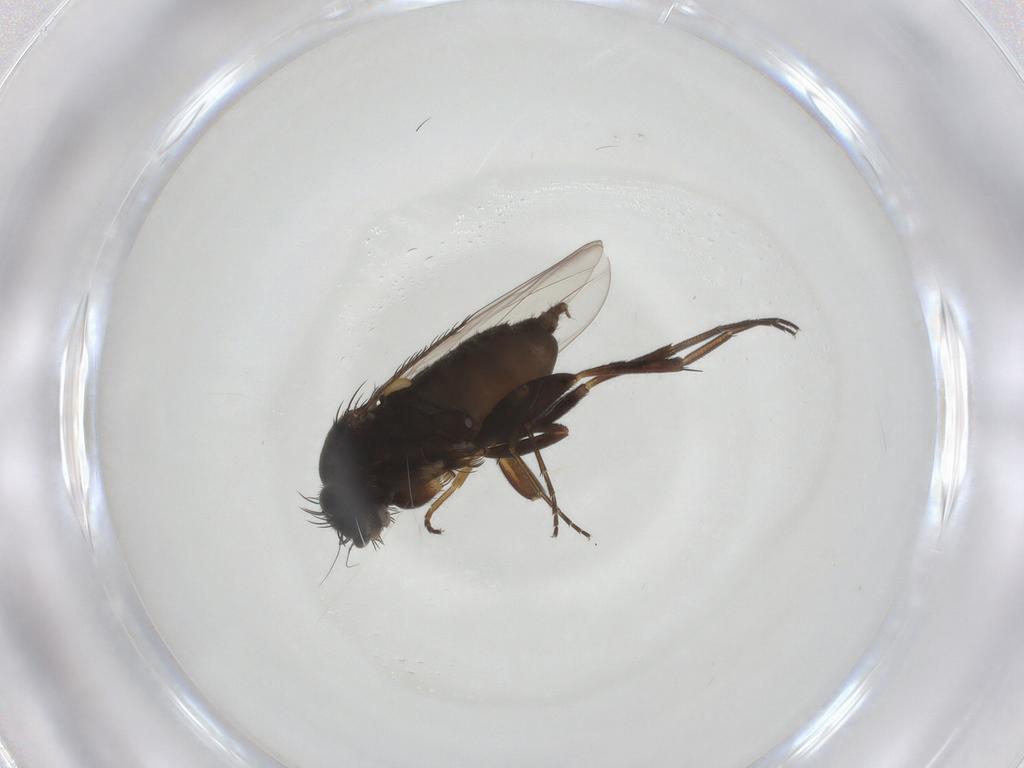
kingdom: Animalia
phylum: Arthropoda
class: Insecta
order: Diptera
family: Phoridae
